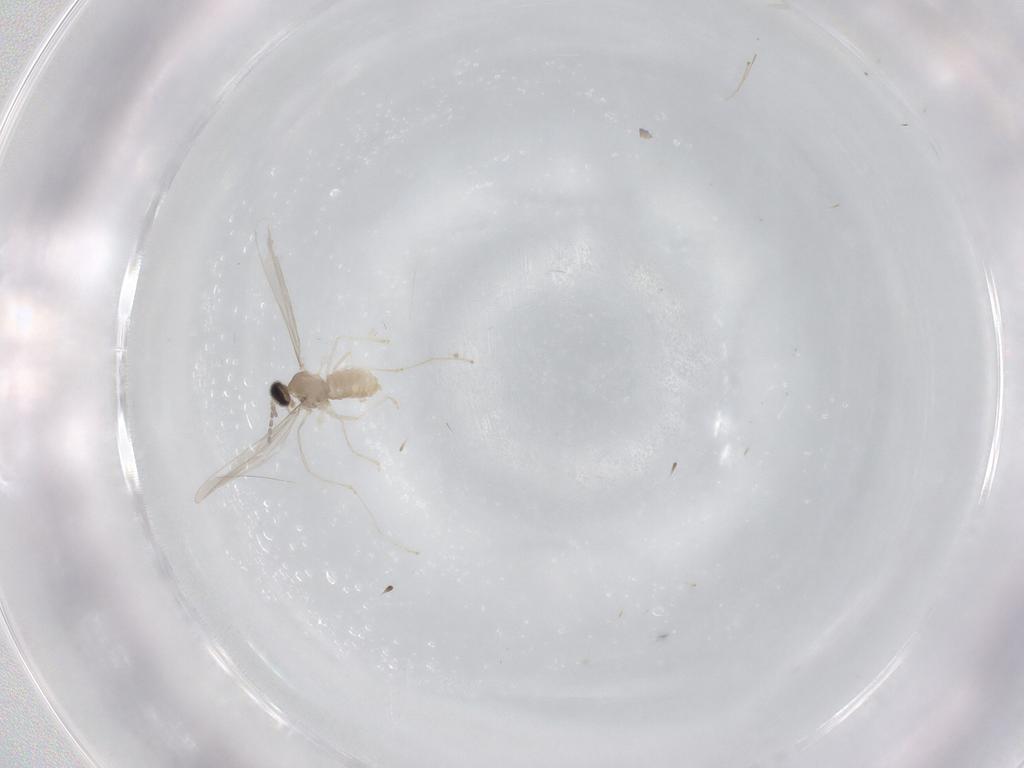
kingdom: Animalia
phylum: Arthropoda
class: Insecta
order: Diptera
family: Cecidomyiidae
